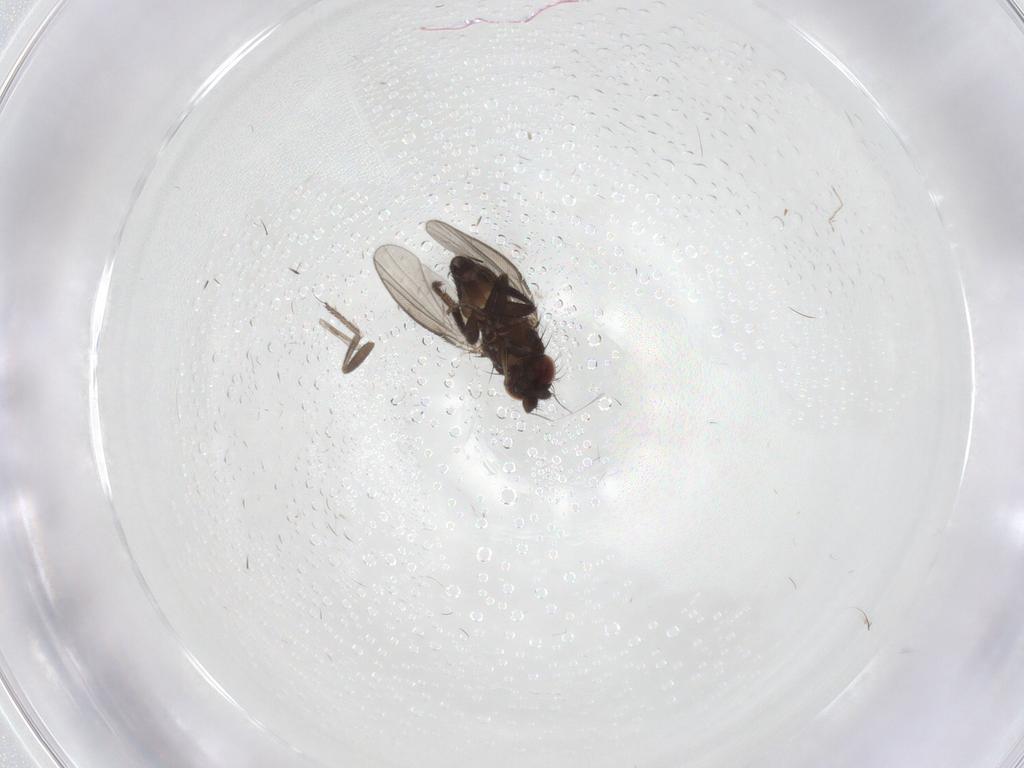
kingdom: Animalia
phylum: Arthropoda
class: Insecta
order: Diptera
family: Milichiidae
